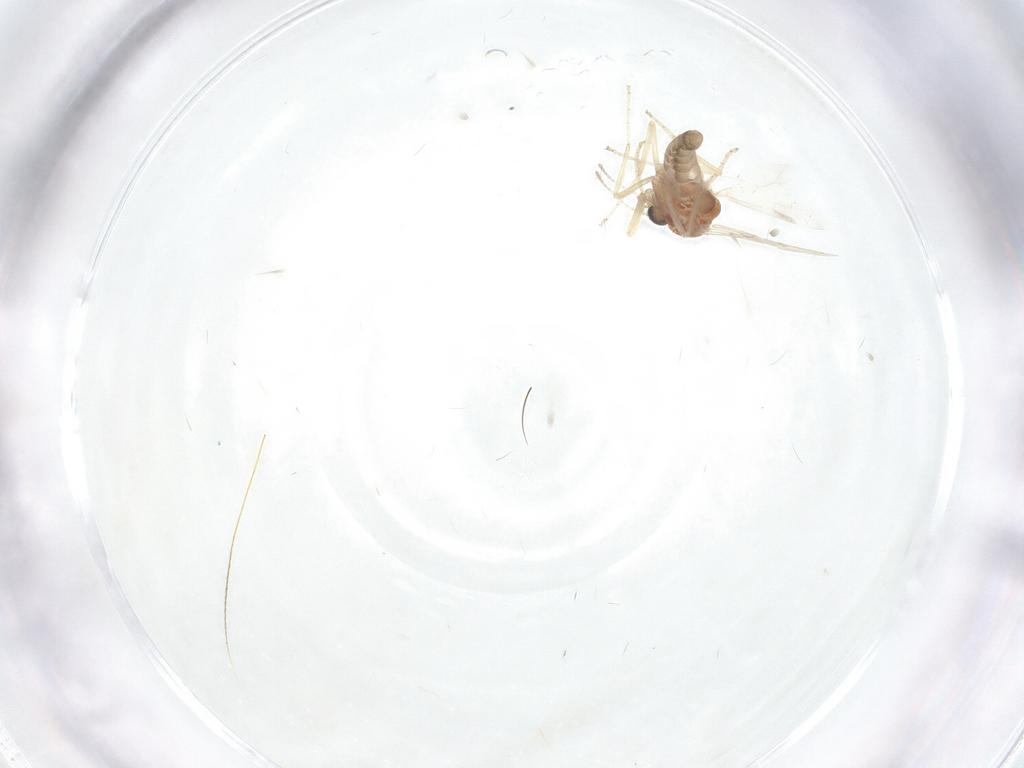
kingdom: Animalia
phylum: Arthropoda
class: Insecta
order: Diptera
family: Ceratopogonidae
